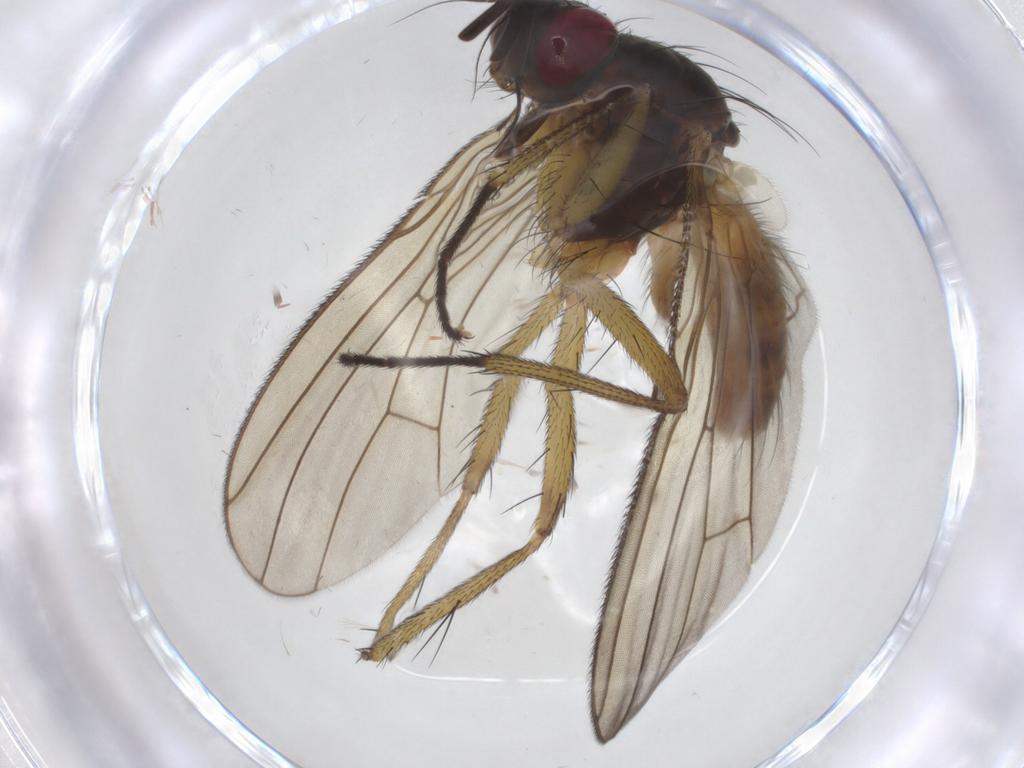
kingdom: Animalia
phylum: Arthropoda
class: Insecta
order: Diptera
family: Muscidae
